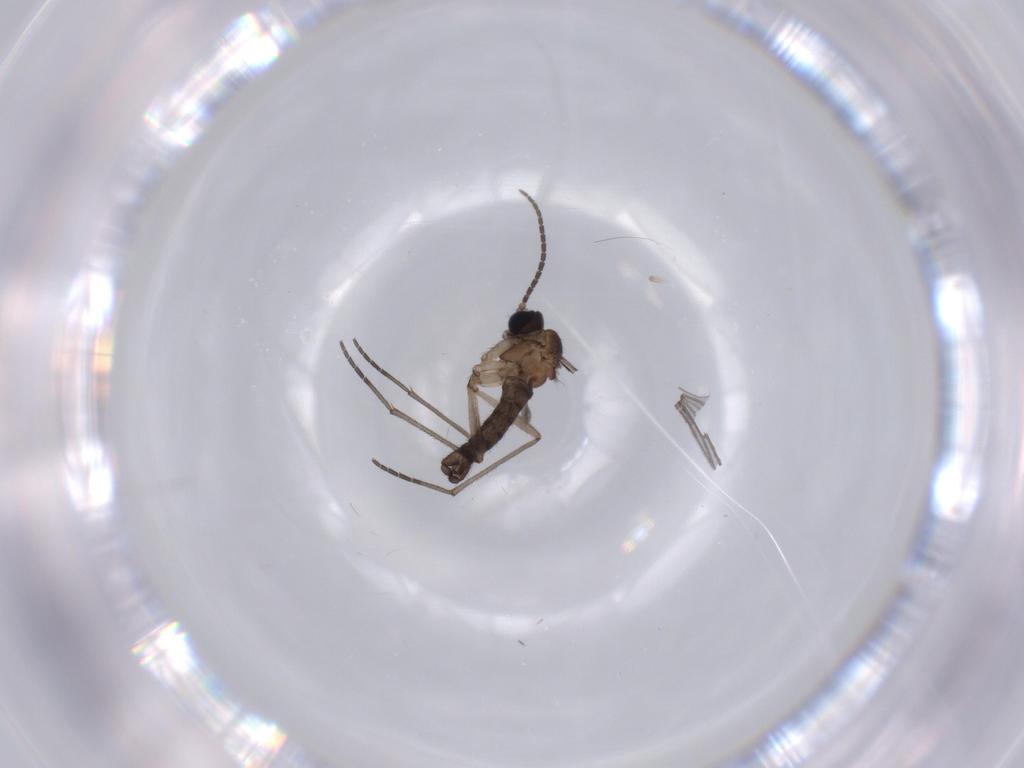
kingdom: Animalia
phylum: Arthropoda
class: Insecta
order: Diptera
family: Sciaridae
